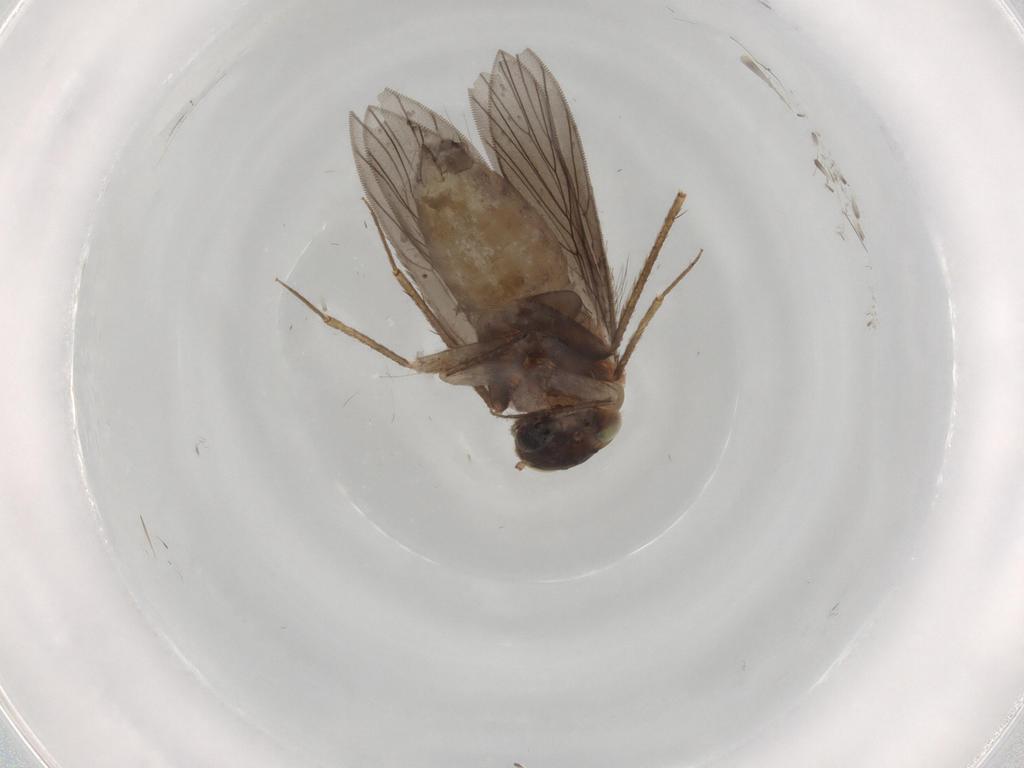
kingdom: Animalia
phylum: Arthropoda
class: Insecta
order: Psocodea
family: Lepidopsocidae
